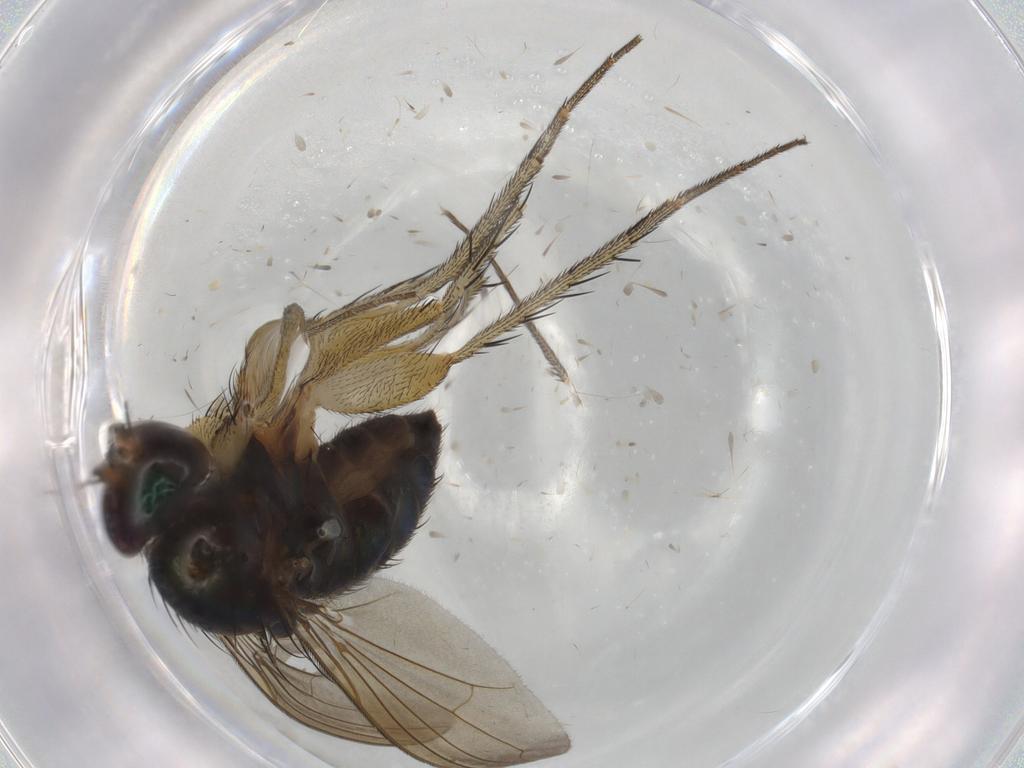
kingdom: Animalia
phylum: Arthropoda
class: Insecta
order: Diptera
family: Dolichopodidae
